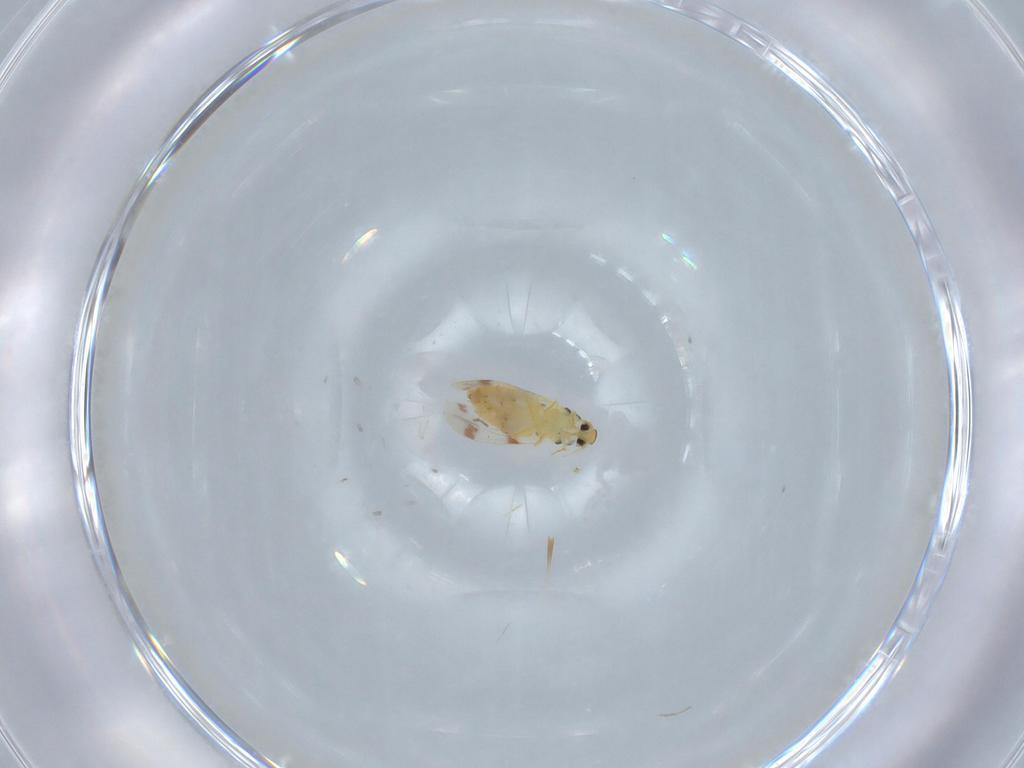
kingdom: Animalia
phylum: Arthropoda
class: Insecta
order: Hemiptera
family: Aleyrodidae
